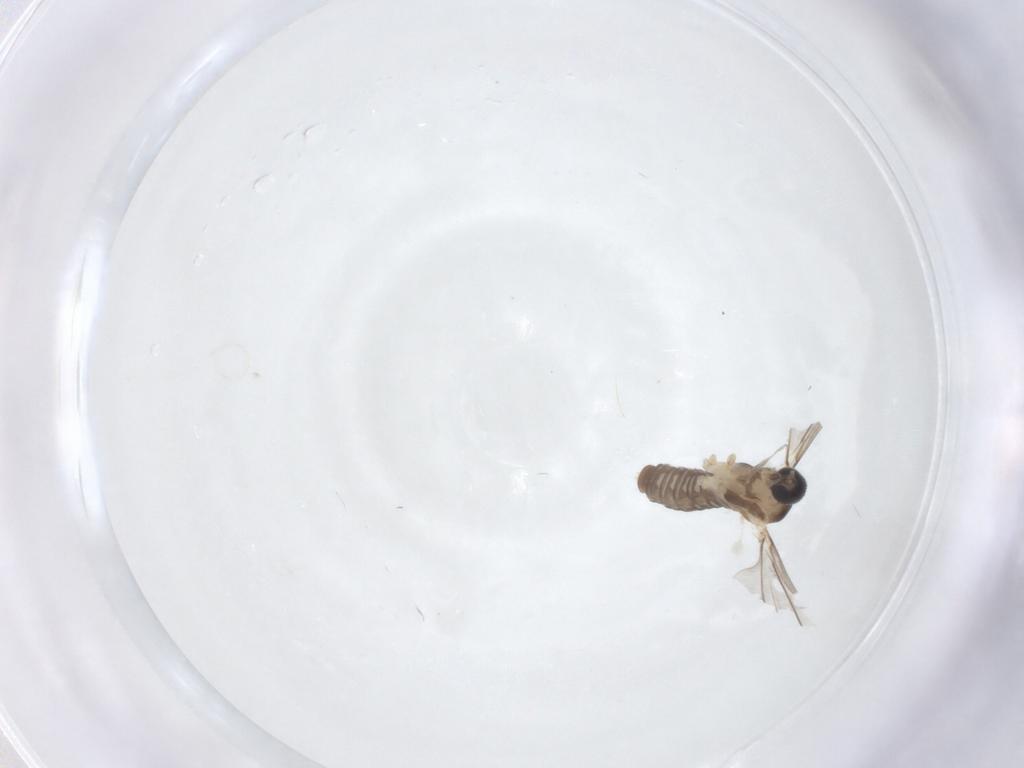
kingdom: Animalia
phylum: Arthropoda
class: Insecta
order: Diptera
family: Cecidomyiidae
